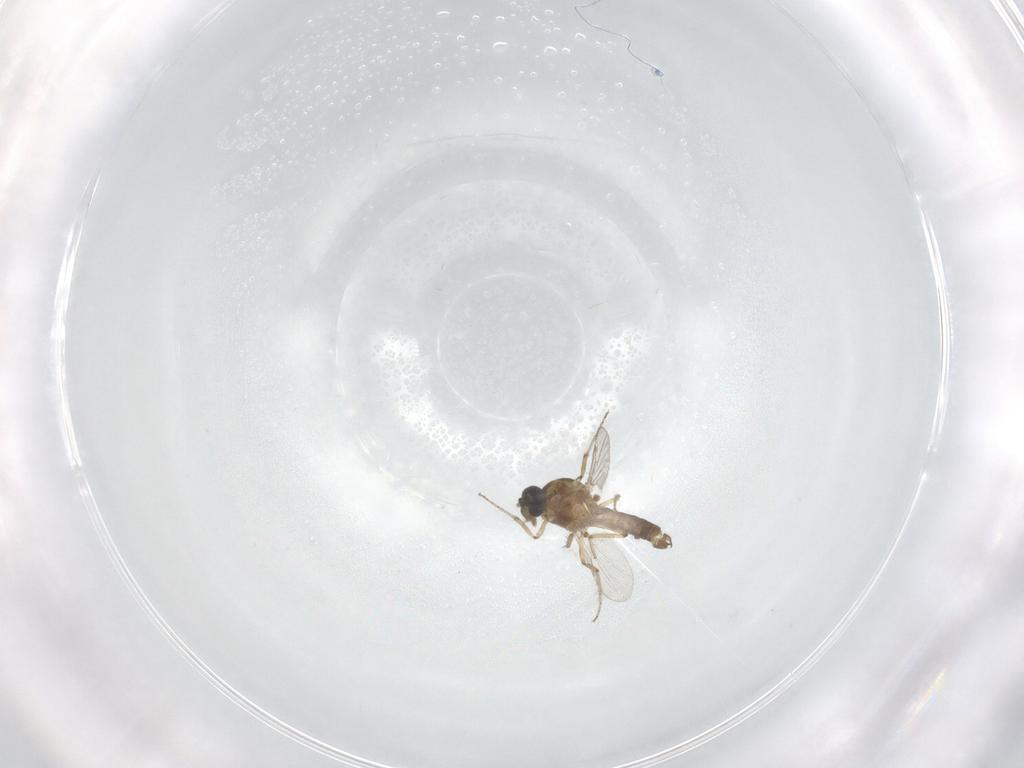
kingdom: Animalia
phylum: Arthropoda
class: Insecta
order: Diptera
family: Ceratopogonidae
